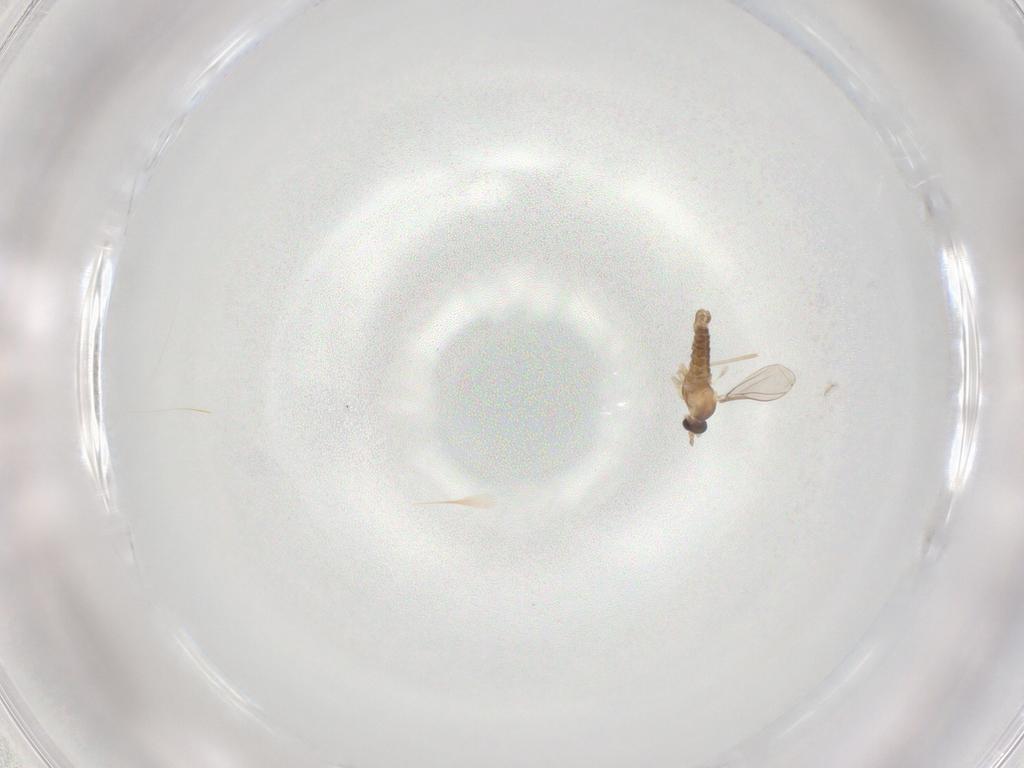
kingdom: Animalia
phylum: Arthropoda
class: Insecta
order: Diptera
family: Cecidomyiidae
